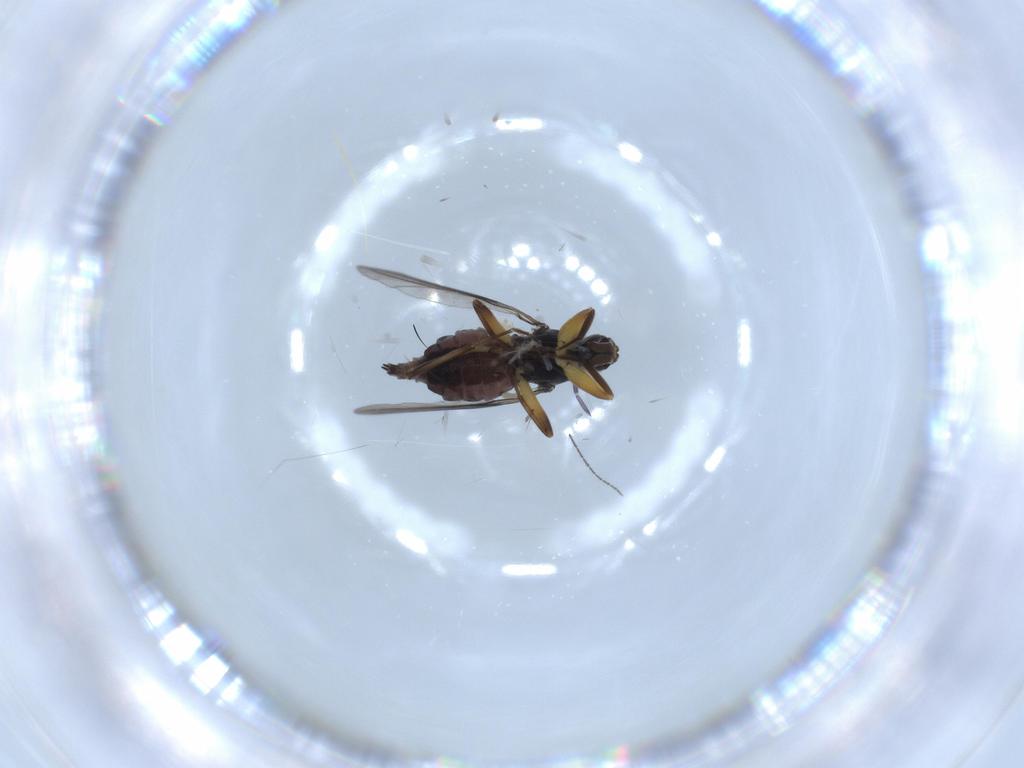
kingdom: Animalia
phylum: Arthropoda
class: Insecta
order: Diptera
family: Hybotidae
